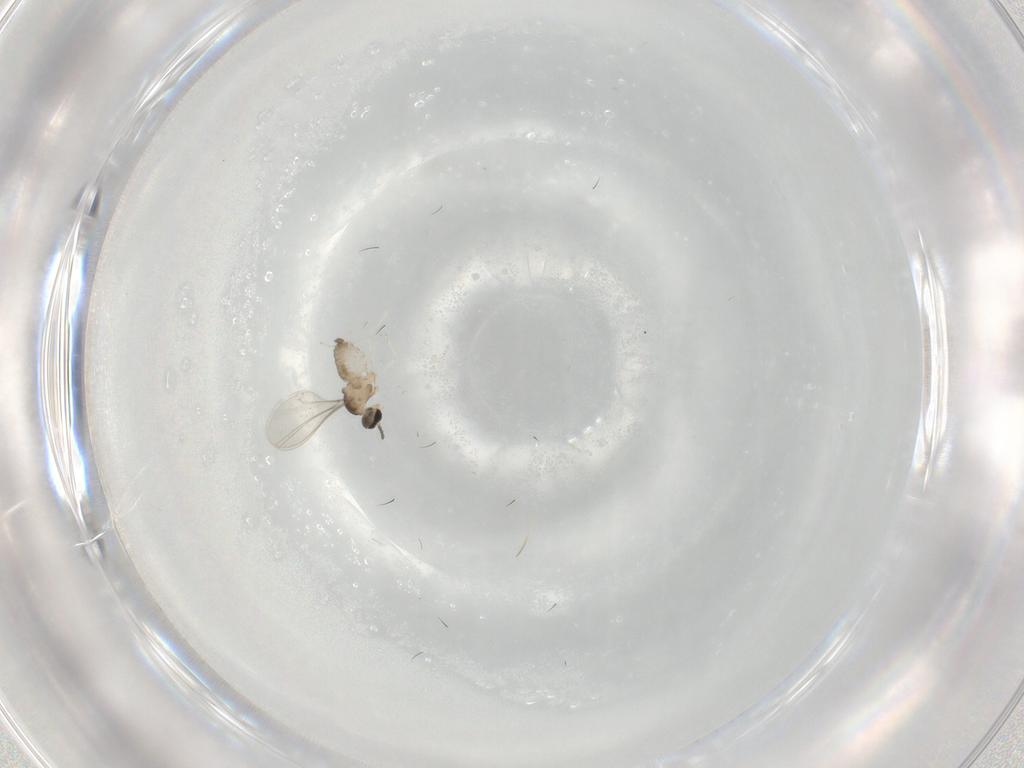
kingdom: Animalia
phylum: Arthropoda
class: Insecta
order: Diptera
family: Cecidomyiidae
